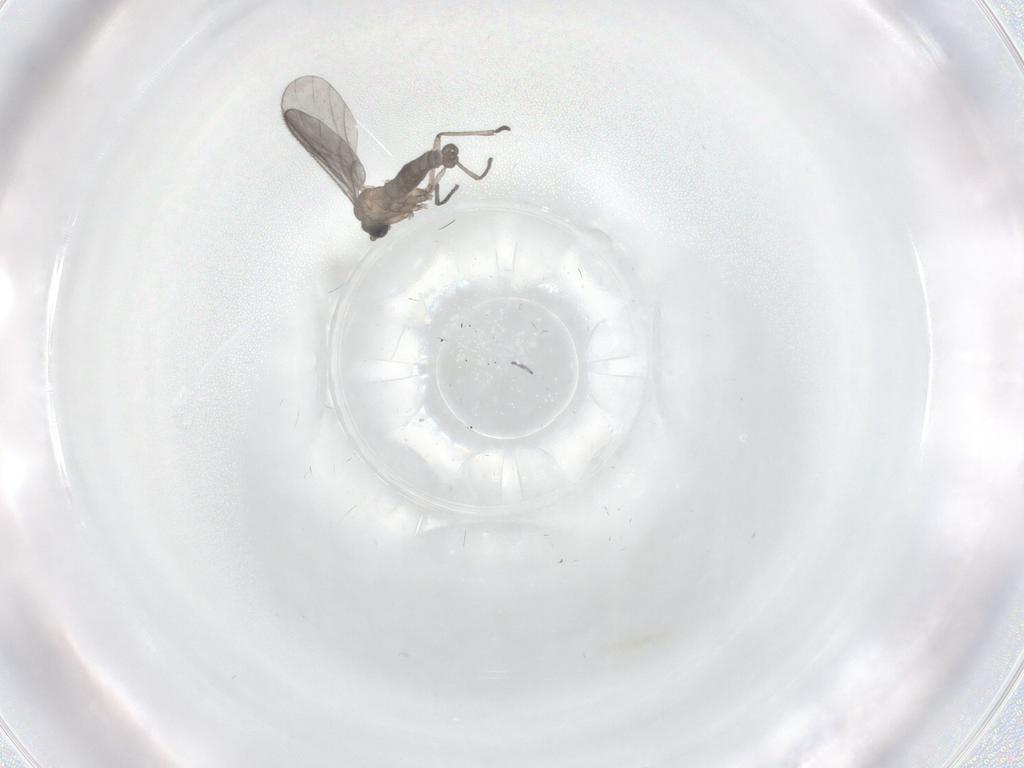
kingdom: Animalia
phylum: Arthropoda
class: Insecta
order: Diptera
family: Ceratopogonidae
